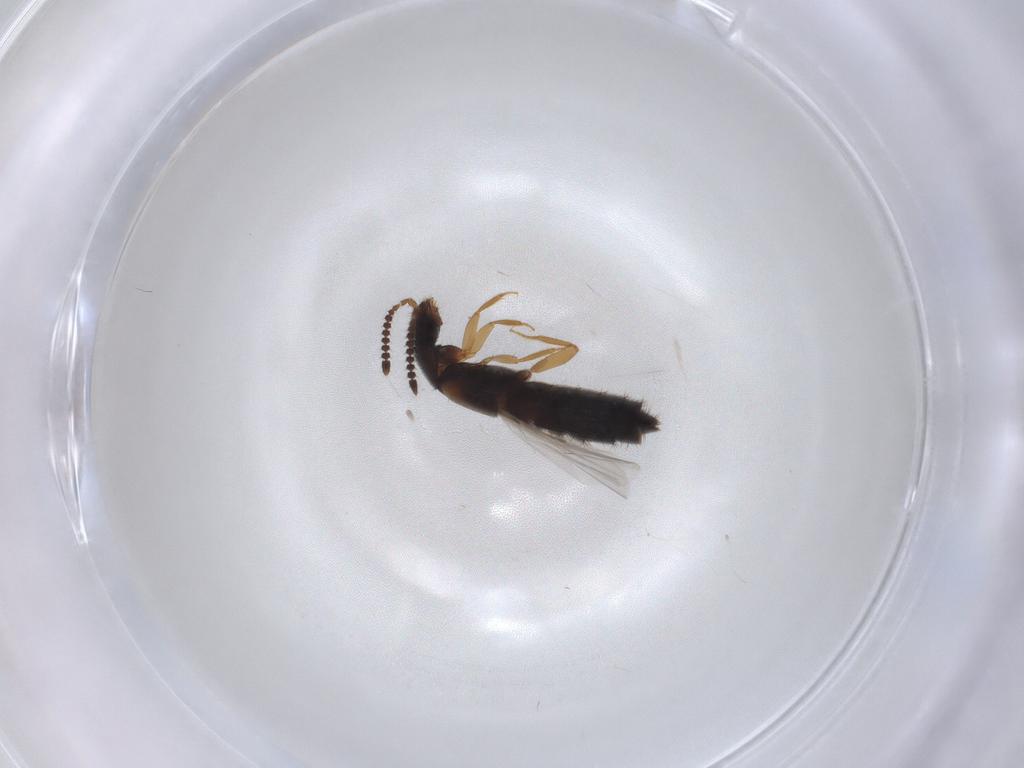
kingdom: Animalia
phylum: Arthropoda
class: Insecta
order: Coleoptera
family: Staphylinidae
